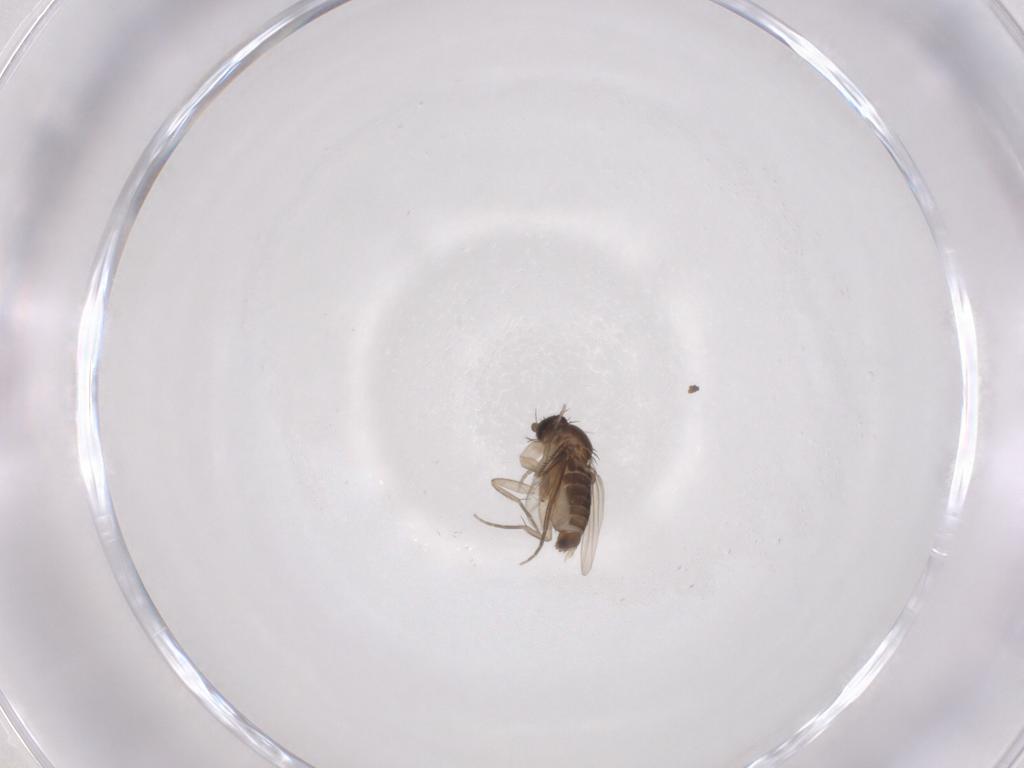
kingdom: Animalia
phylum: Arthropoda
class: Insecta
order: Diptera
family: Phoridae
